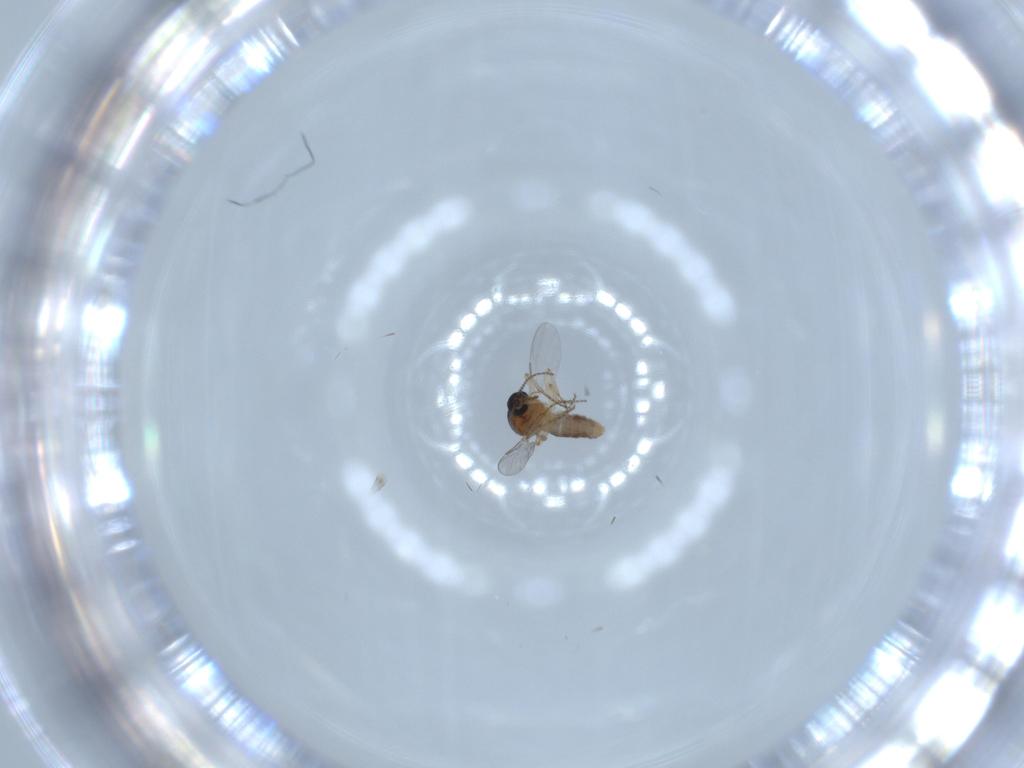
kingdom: Animalia
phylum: Arthropoda
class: Insecta
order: Diptera
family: Ceratopogonidae
